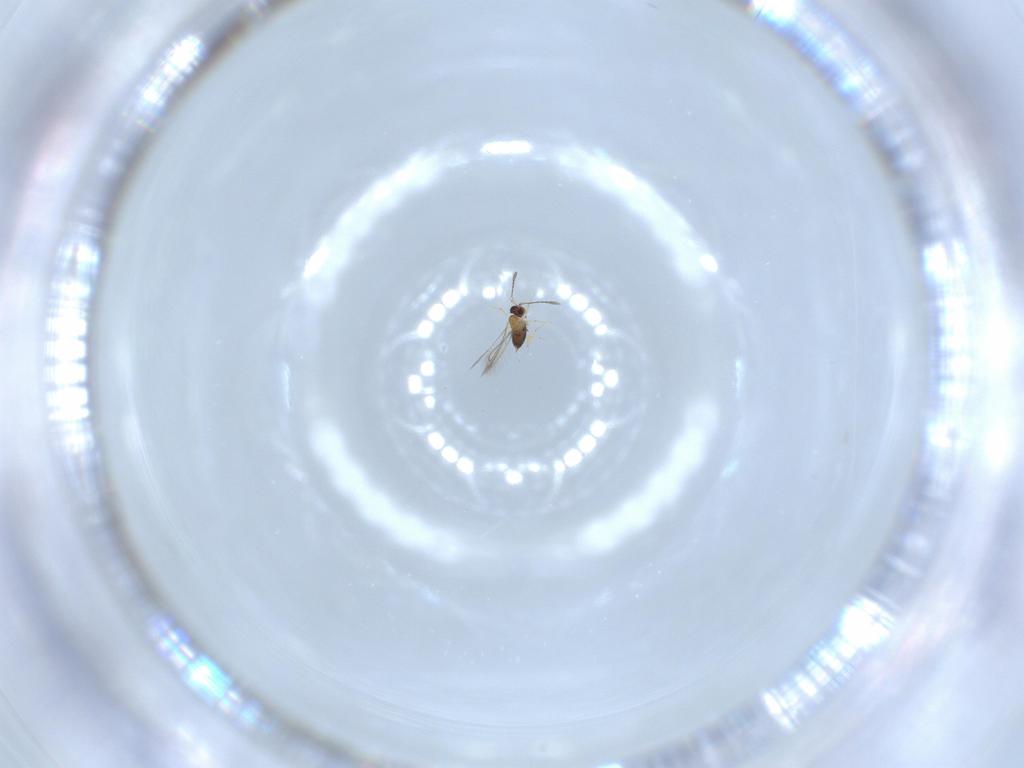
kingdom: Animalia
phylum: Arthropoda
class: Insecta
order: Hymenoptera
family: Mymaridae
